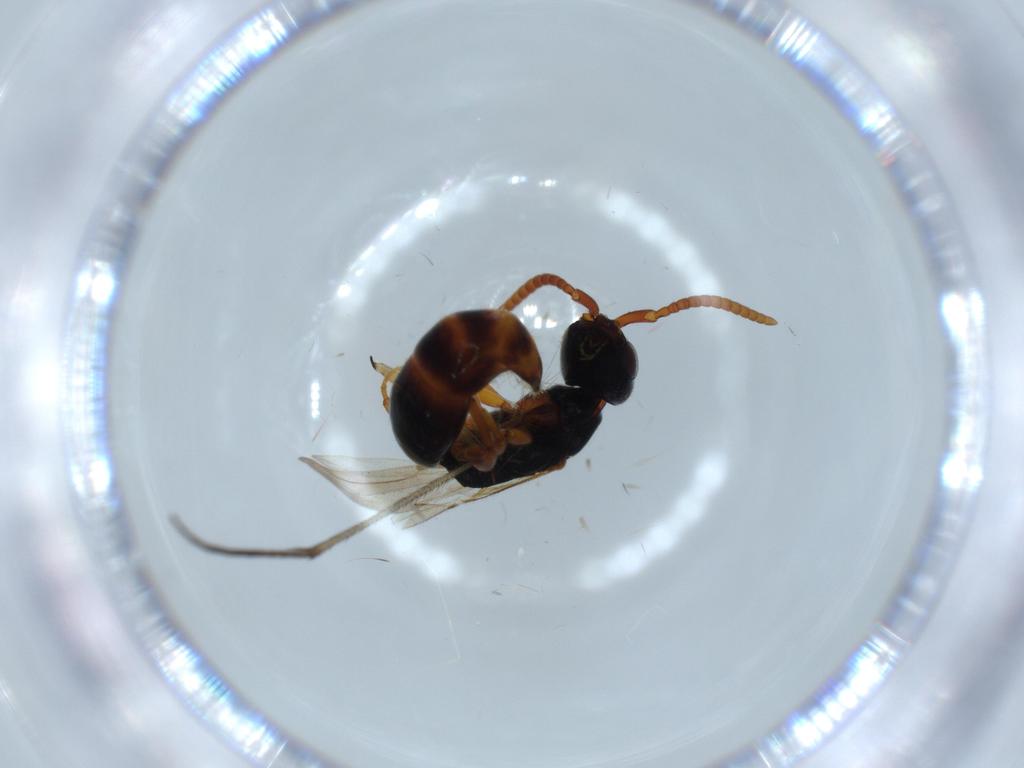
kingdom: Animalia
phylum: Arthropoda
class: Insecta
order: Hymenoptera
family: Bethylidae
